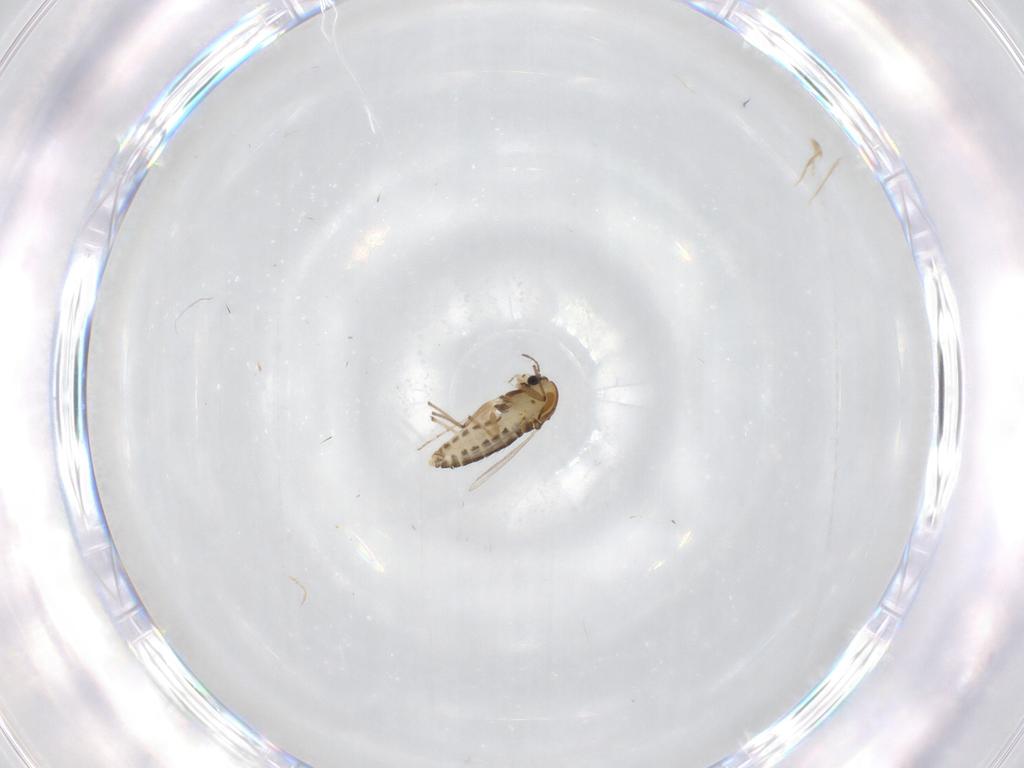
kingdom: Animalia
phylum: Arthropoda
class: Insecta
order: Diptera
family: Chironomidae
